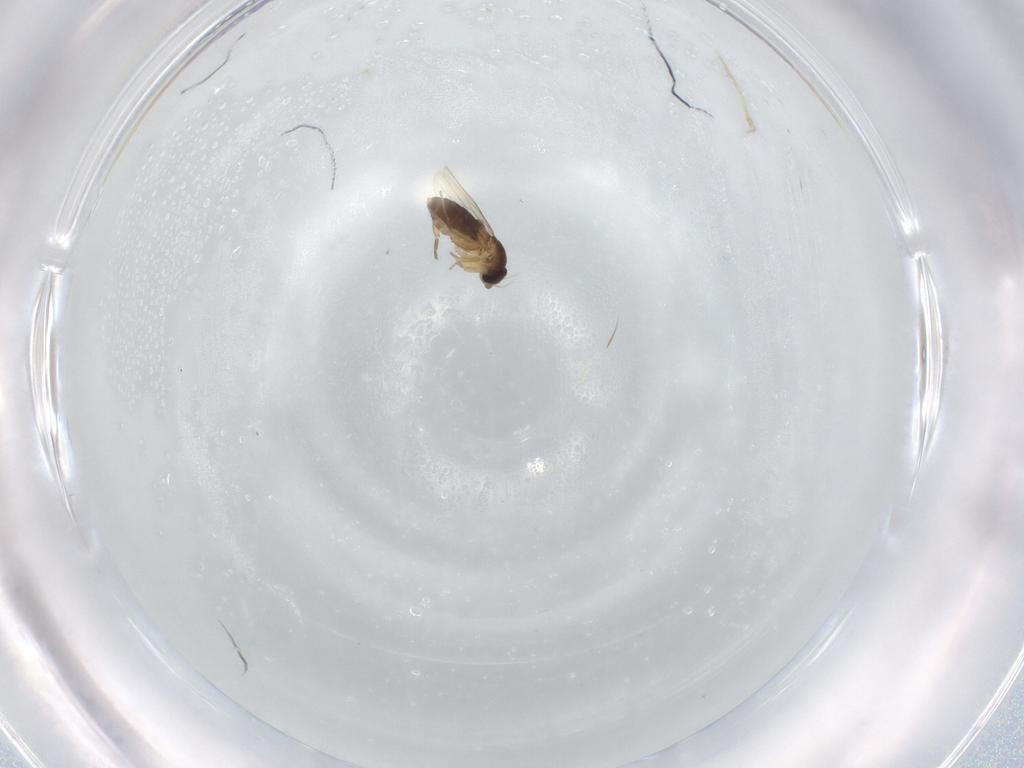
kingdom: Animalia
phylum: Arthropoda
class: Insecta
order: Diptera
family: Phoridae
